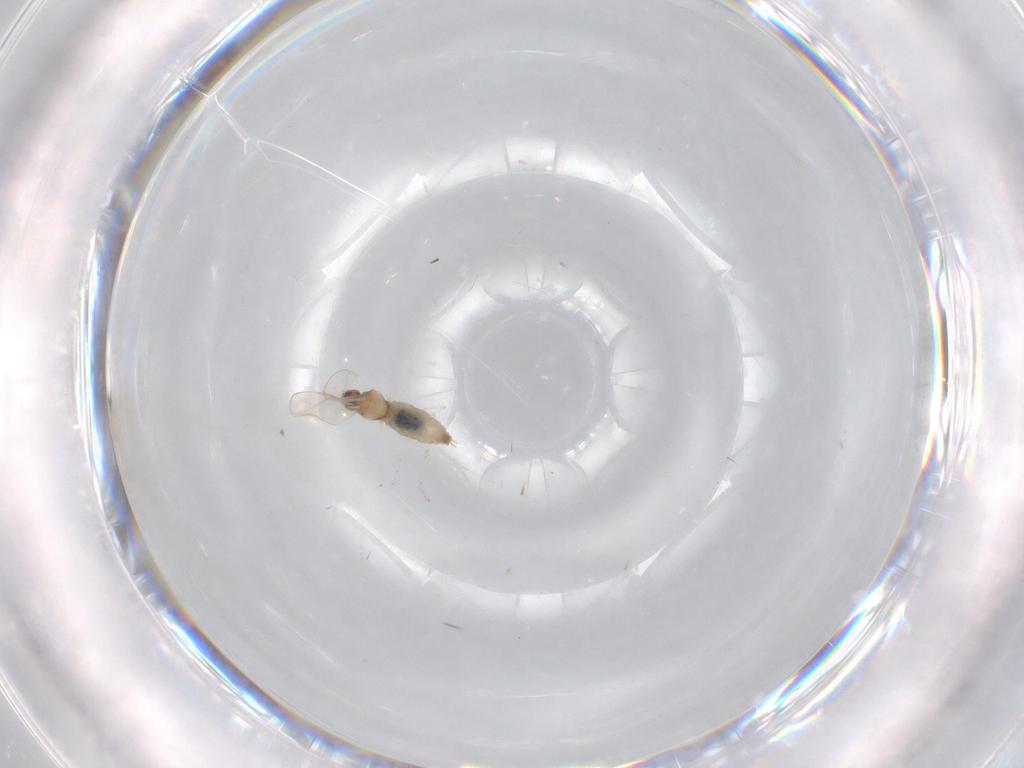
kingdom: Animalia
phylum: Arthropoda
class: Insecta
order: Diptera
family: Cecidomyiidae
